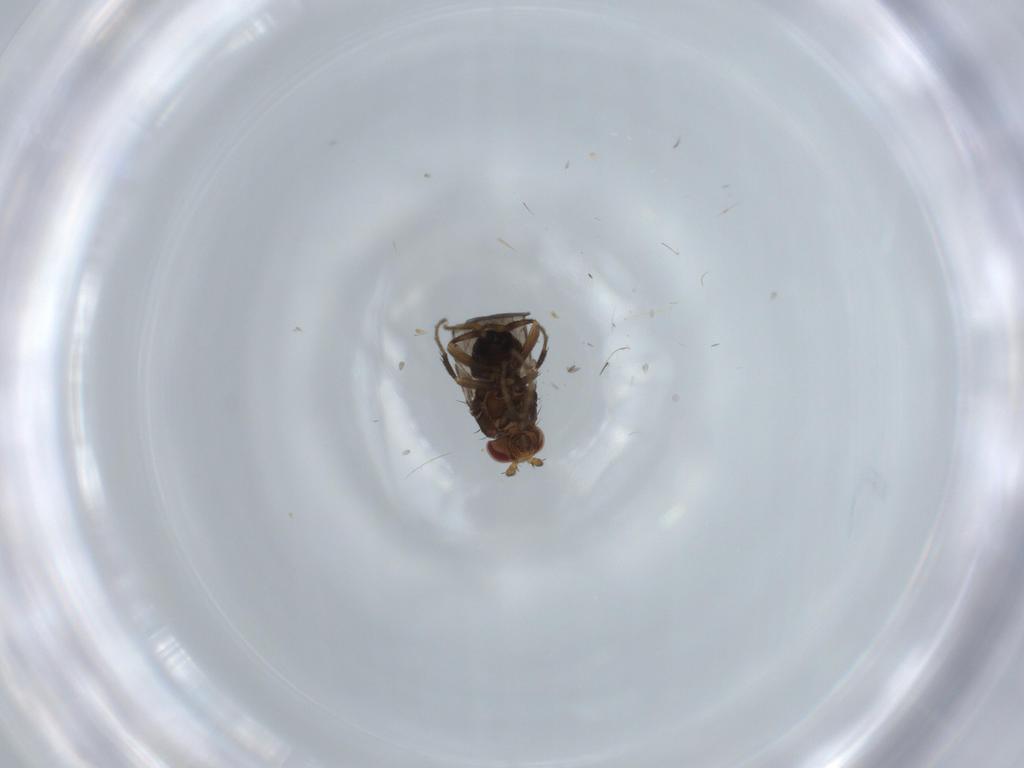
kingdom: Animalia
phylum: Arthropoda
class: Insecta
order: Diptera
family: Cecidomyiidae
